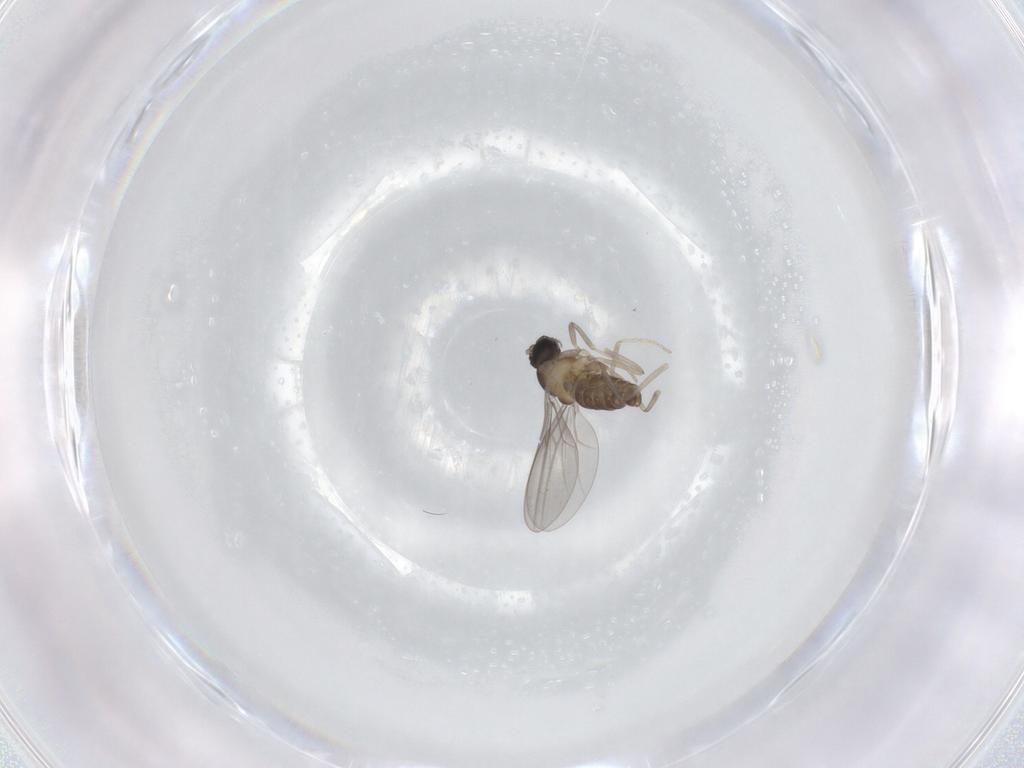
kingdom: Animalia
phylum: Arthropoda
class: Insecta
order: Diptera
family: Cecidomyiidae
